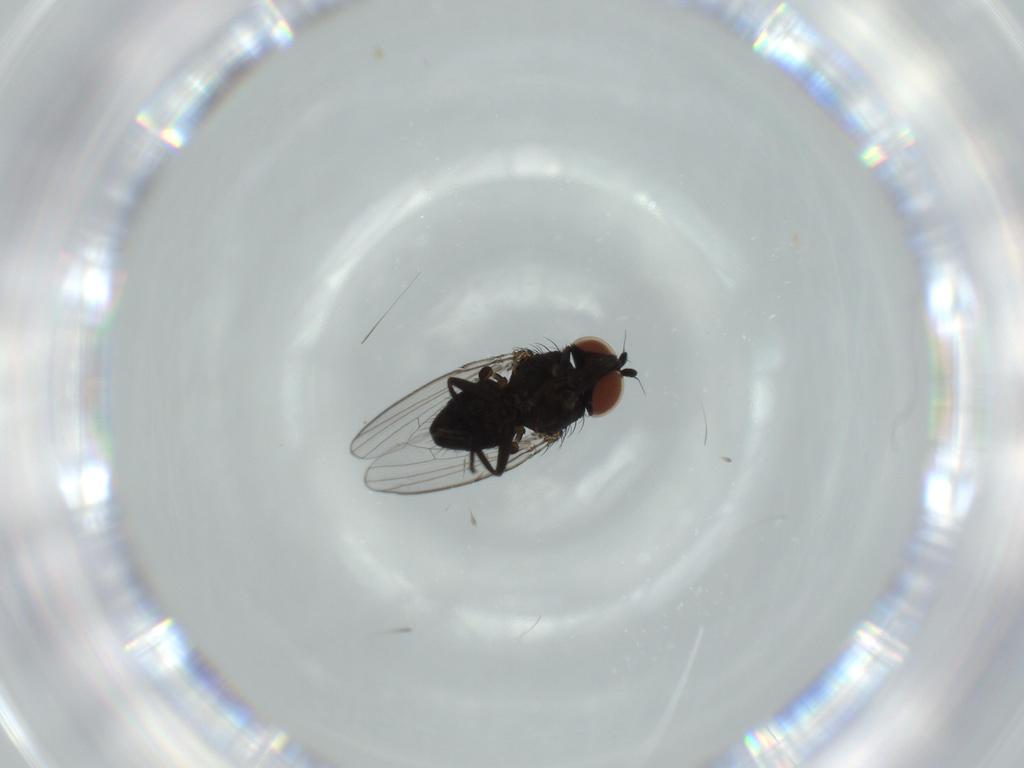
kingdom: Animalia
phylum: Arthropoda
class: Insecta
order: Diptera
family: Milichiidae
